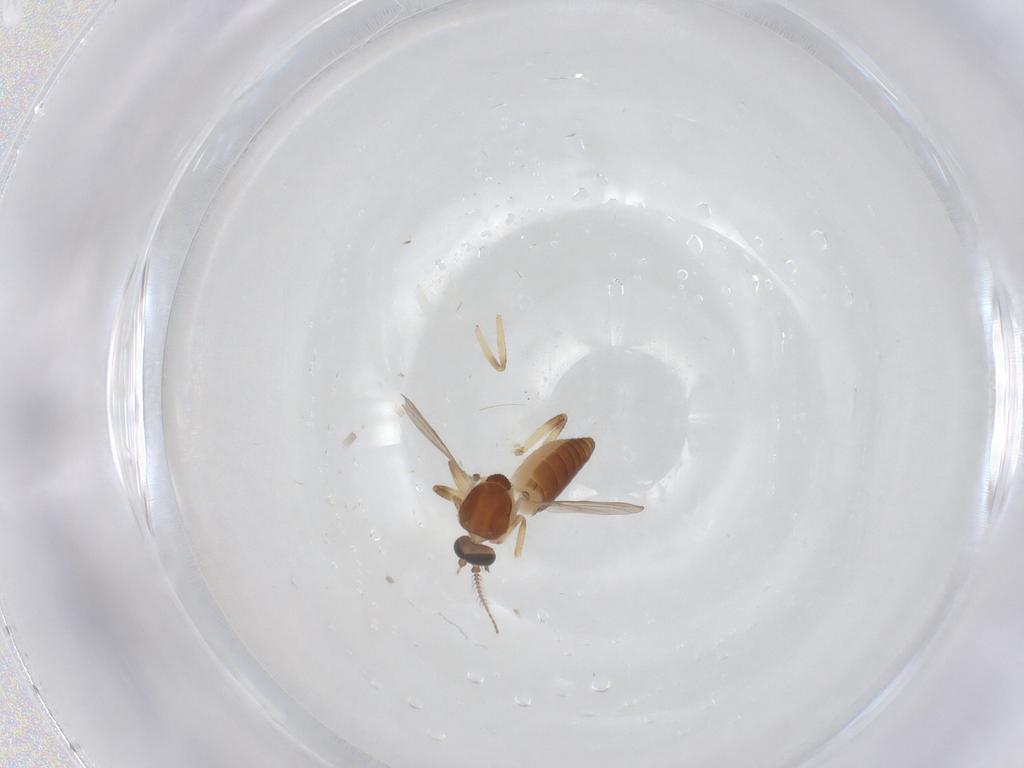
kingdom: Animalia
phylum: Arthropoda
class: Insecta
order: Diptera
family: Ceratopogonidae
